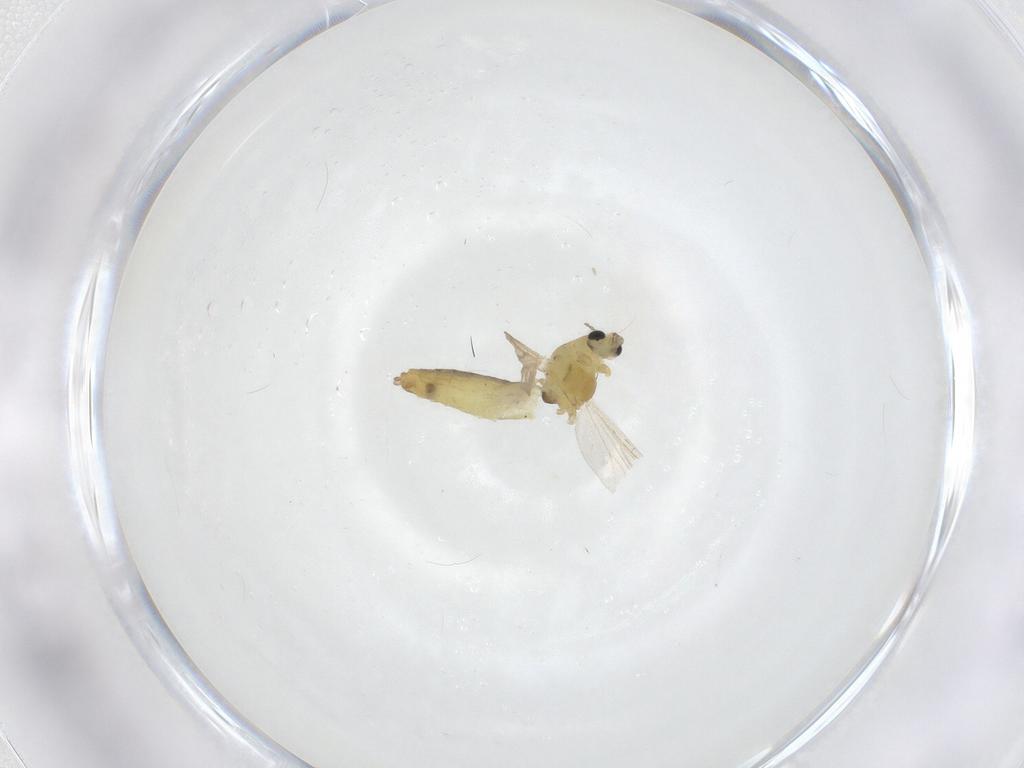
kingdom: Animalia
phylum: Arthropoda
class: Insecta
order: Diptera
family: Chironomidae
